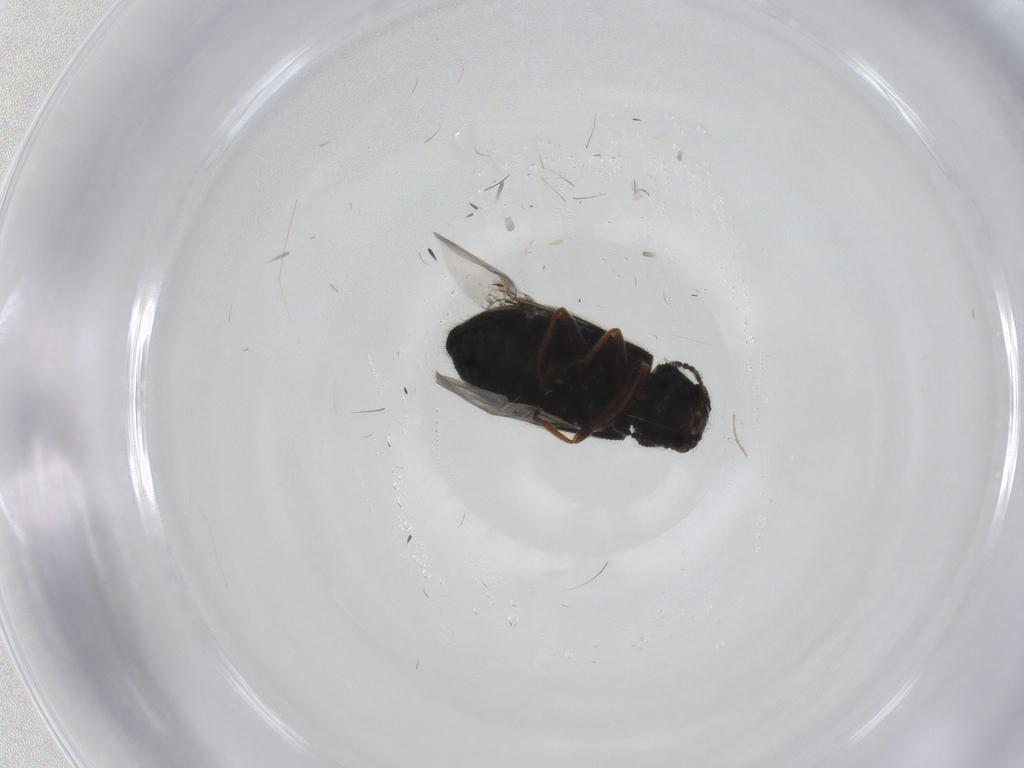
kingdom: Animalia
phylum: Arthropoda
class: Insecta
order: Coleoptera
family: Melyridae
